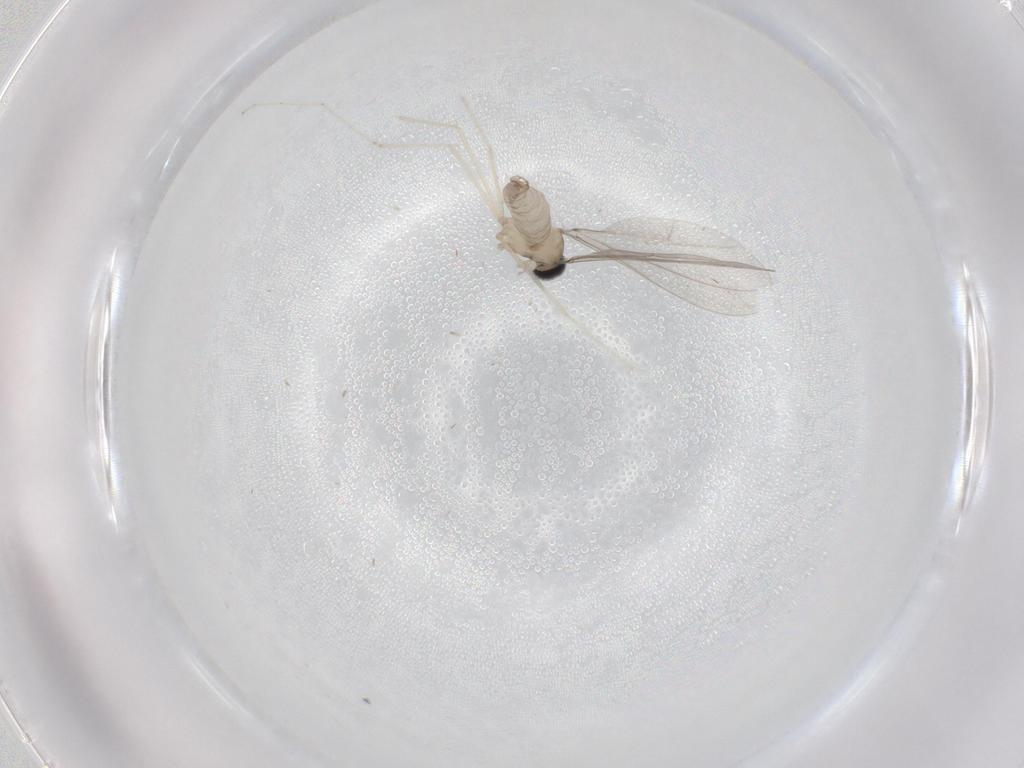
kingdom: Animalia
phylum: Arthropoda
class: Insecta
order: Diptera
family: Cecidomyiidae
